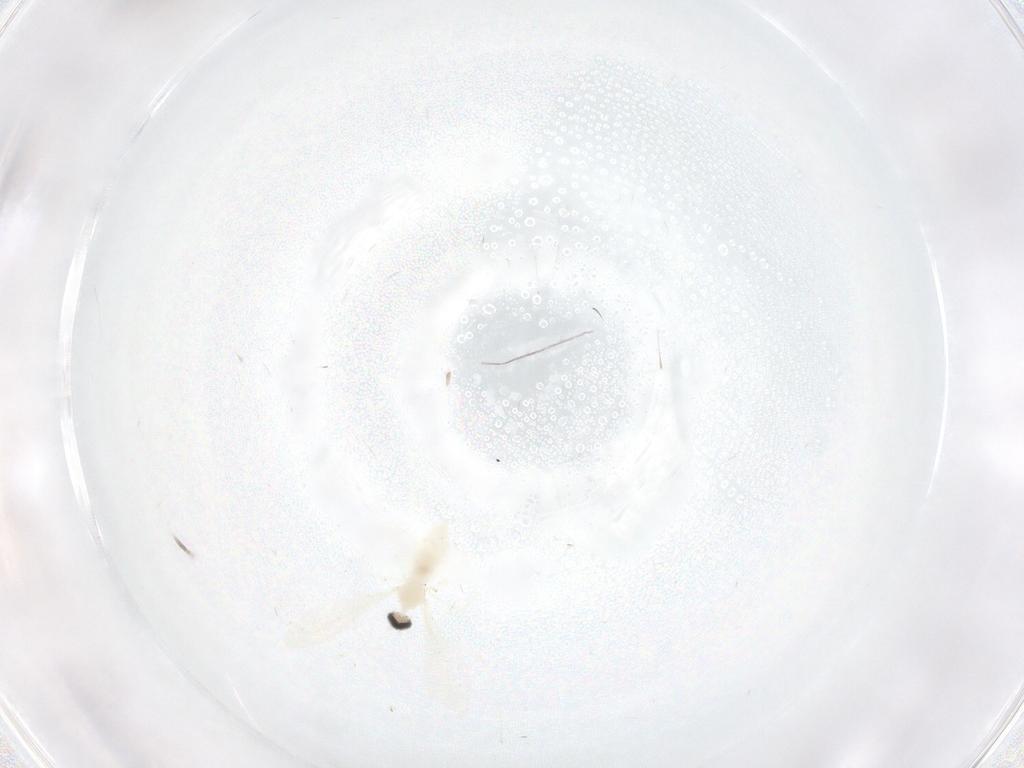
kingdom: Animalia
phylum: Arthropoda
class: Insecta
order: Diptera
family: Cecidomyiidae
